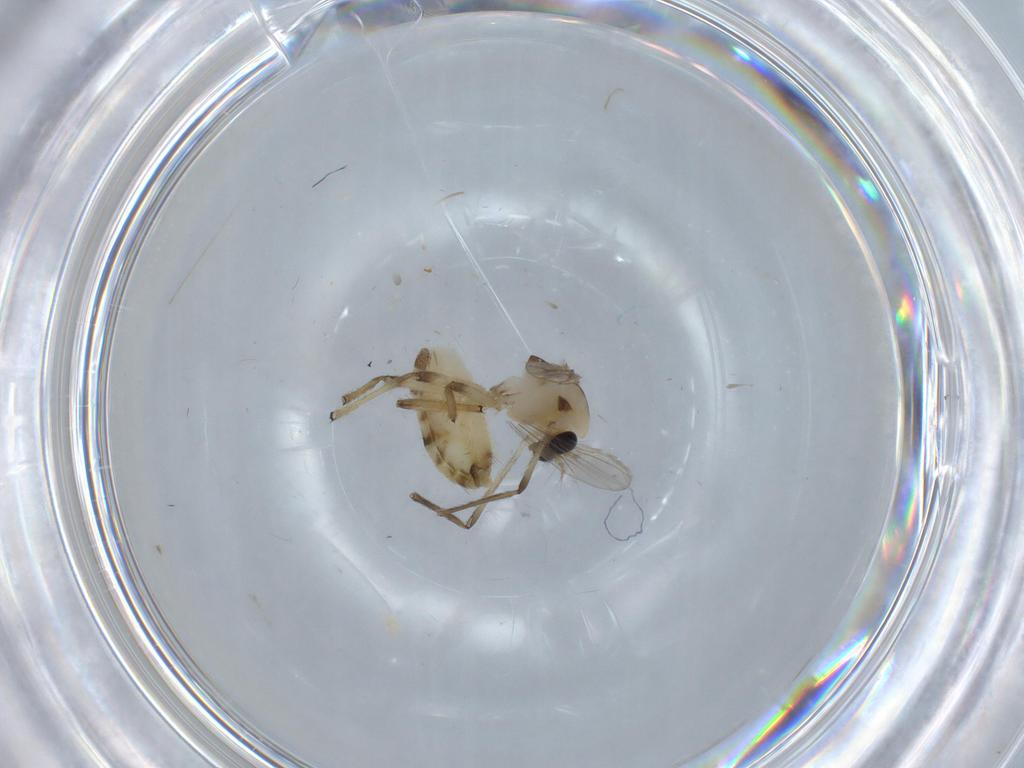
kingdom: Animalia
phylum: Arthropoda
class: Insecta
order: Diptera
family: Chironomidae
